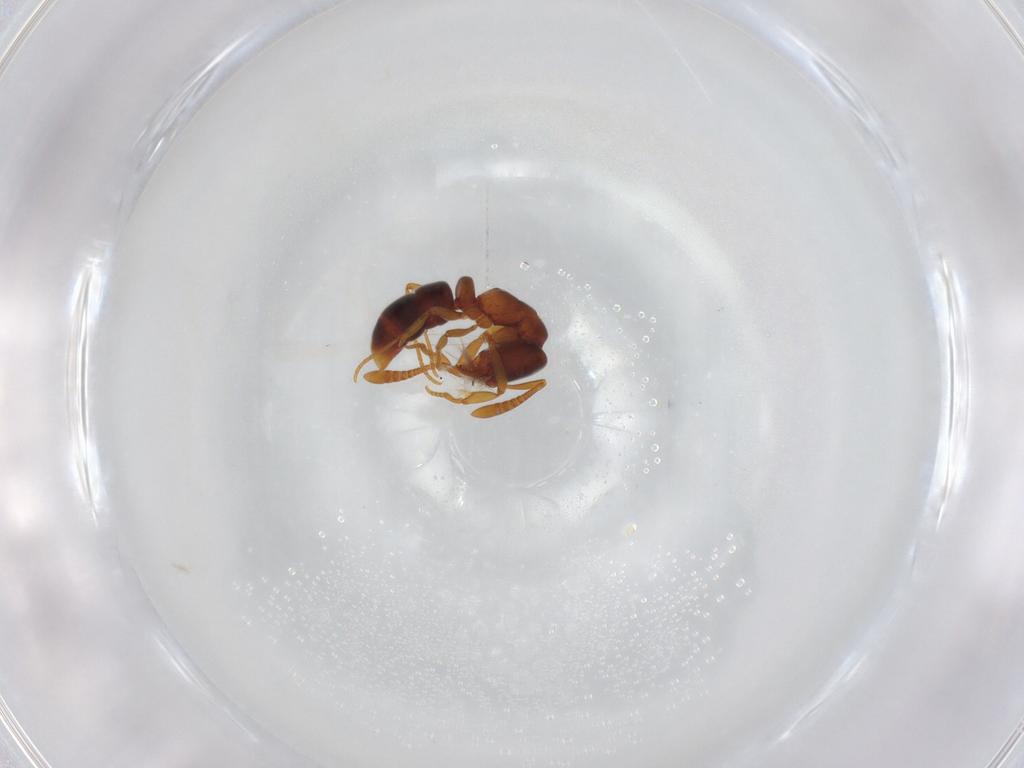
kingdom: Animalia
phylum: Arthropoda
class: Insecta
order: Hymenoptera
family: Formicidae
